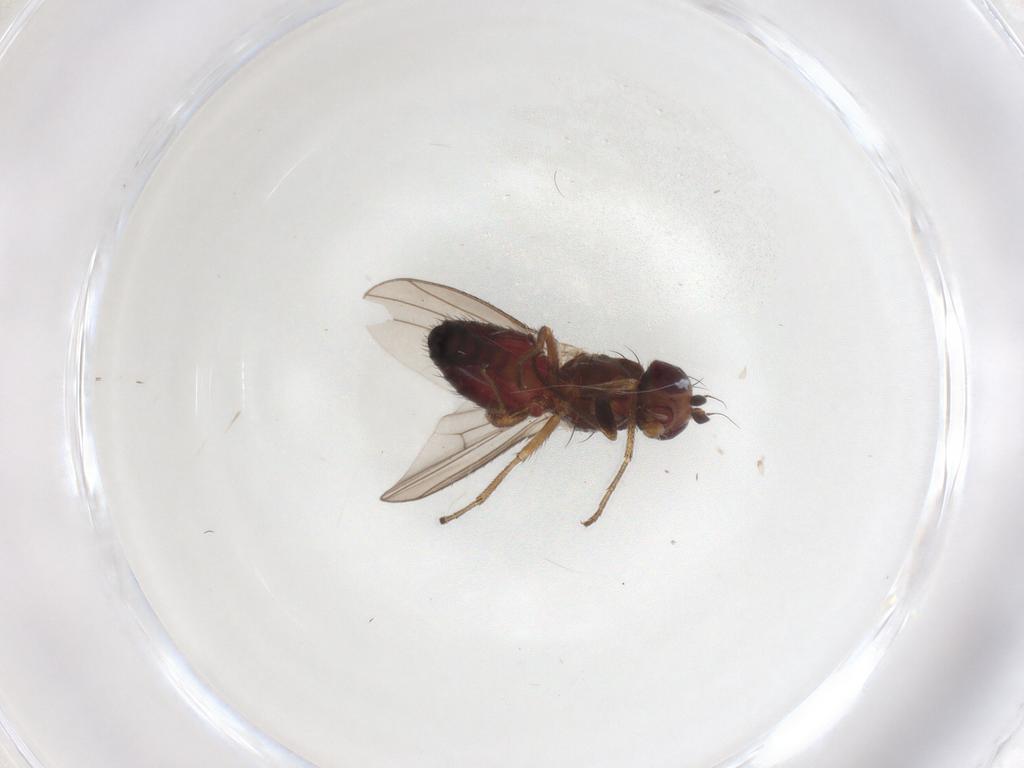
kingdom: Animalia
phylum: Arthropoda
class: Insecta
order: Diptera
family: Heleomyzidae
